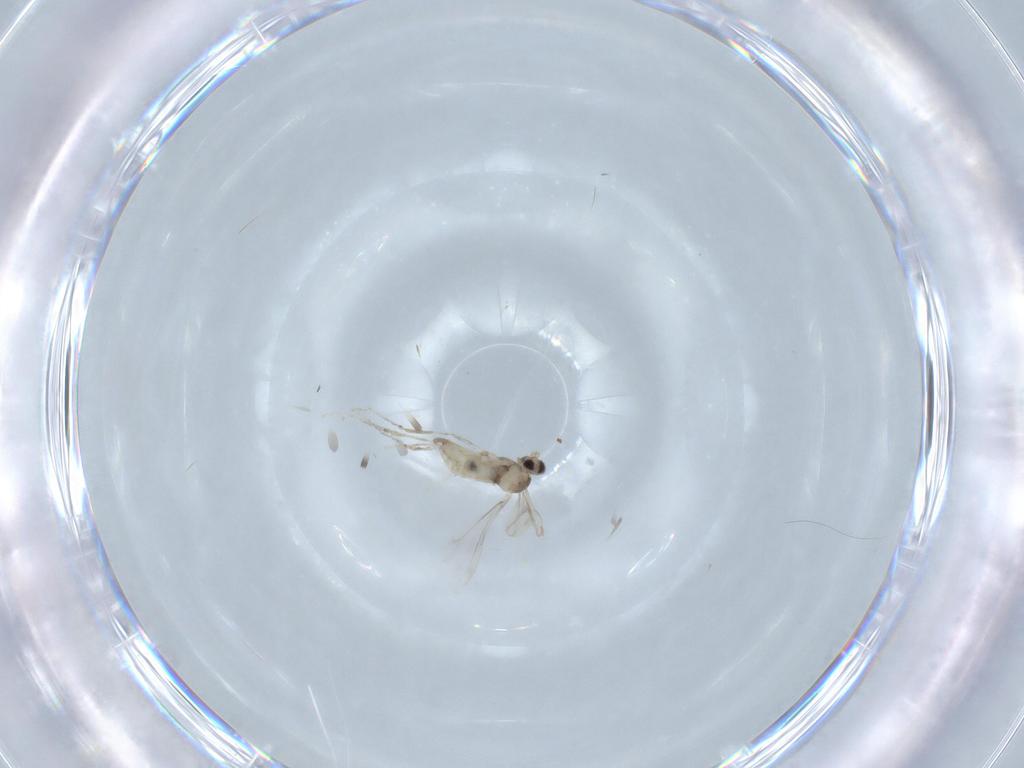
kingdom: Animalia
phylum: Arthropoda
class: Insecta
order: Diptera
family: Cecidomyiidae
